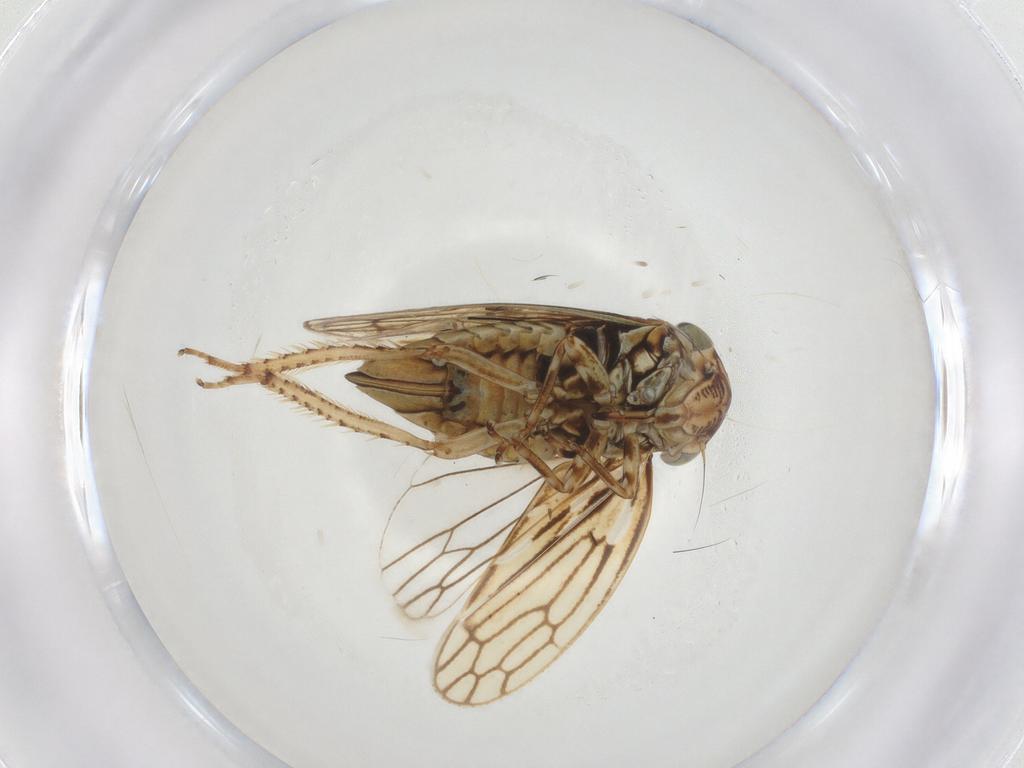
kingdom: Animalia
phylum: Arthropoda
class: Insecta
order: Hemiptera
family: Cicadellidae
